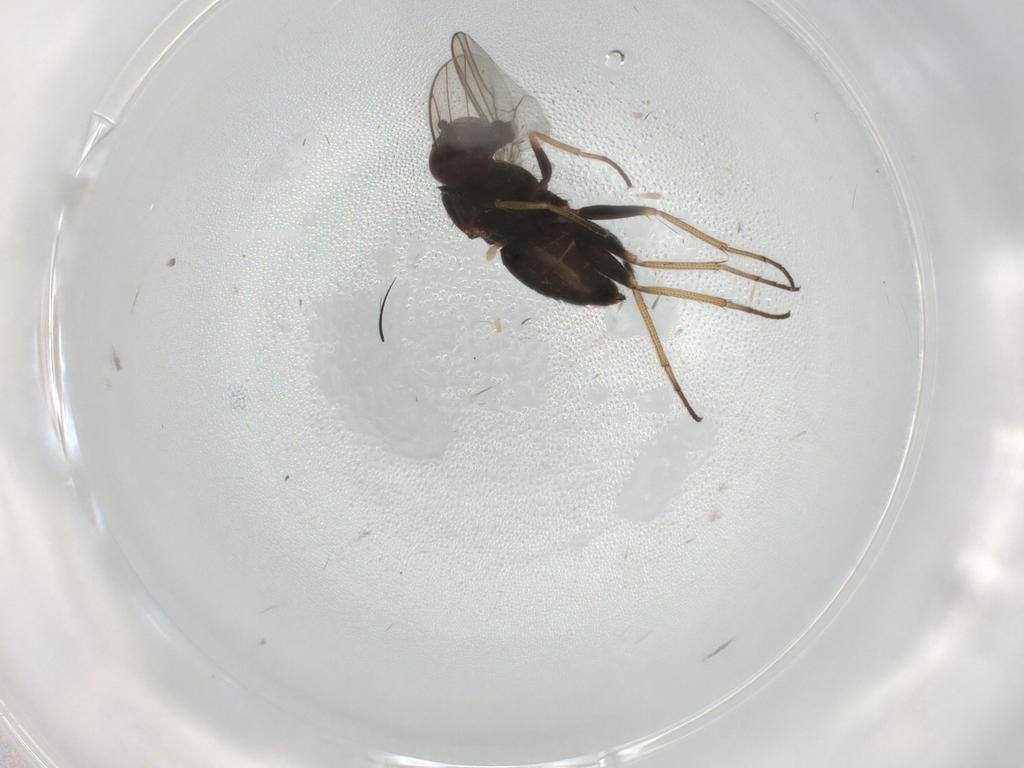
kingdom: Animalia
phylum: Arthropoda
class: Insecta
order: Diptera
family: Dolichopodidae
